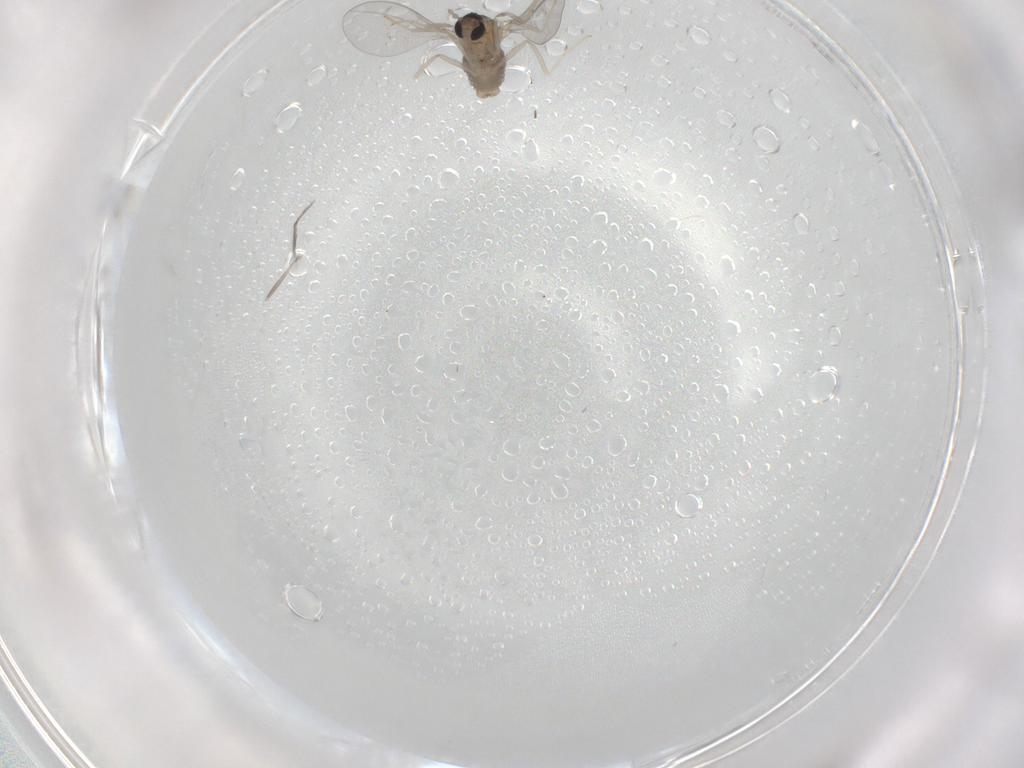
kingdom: Animalia
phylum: Arthropoda
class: Insecta
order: Diptera
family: Cecidomyiidae
